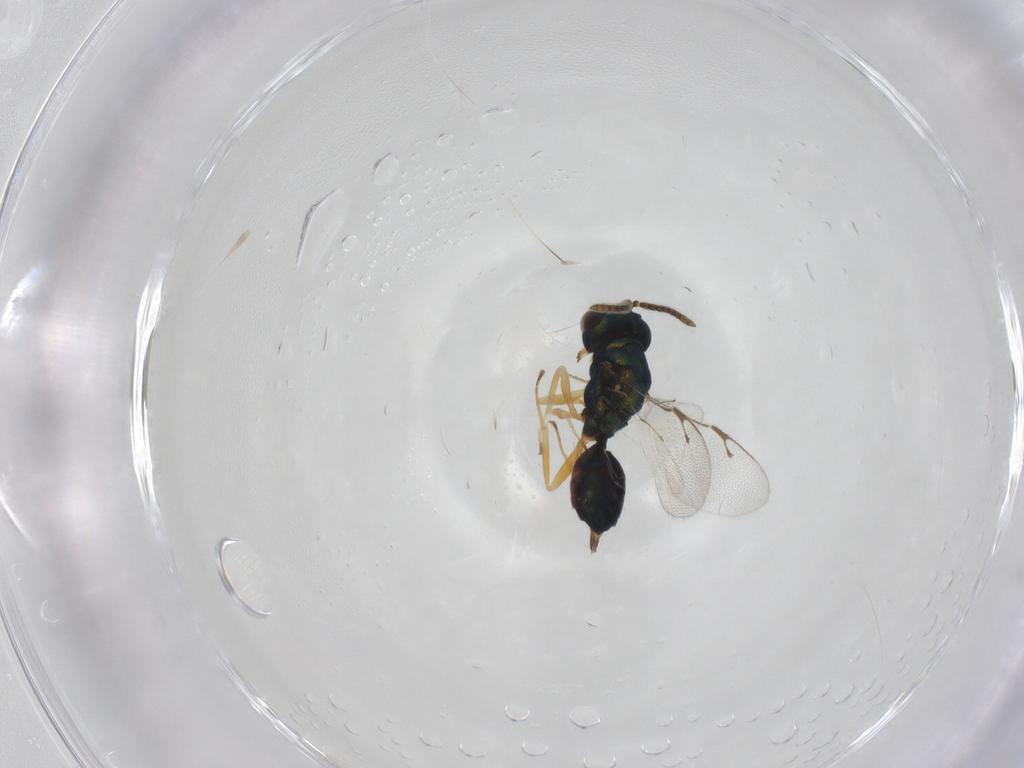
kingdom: Animalia
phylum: Arthropoda
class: Insecta
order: Hymenoptera
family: Pteromalidae
